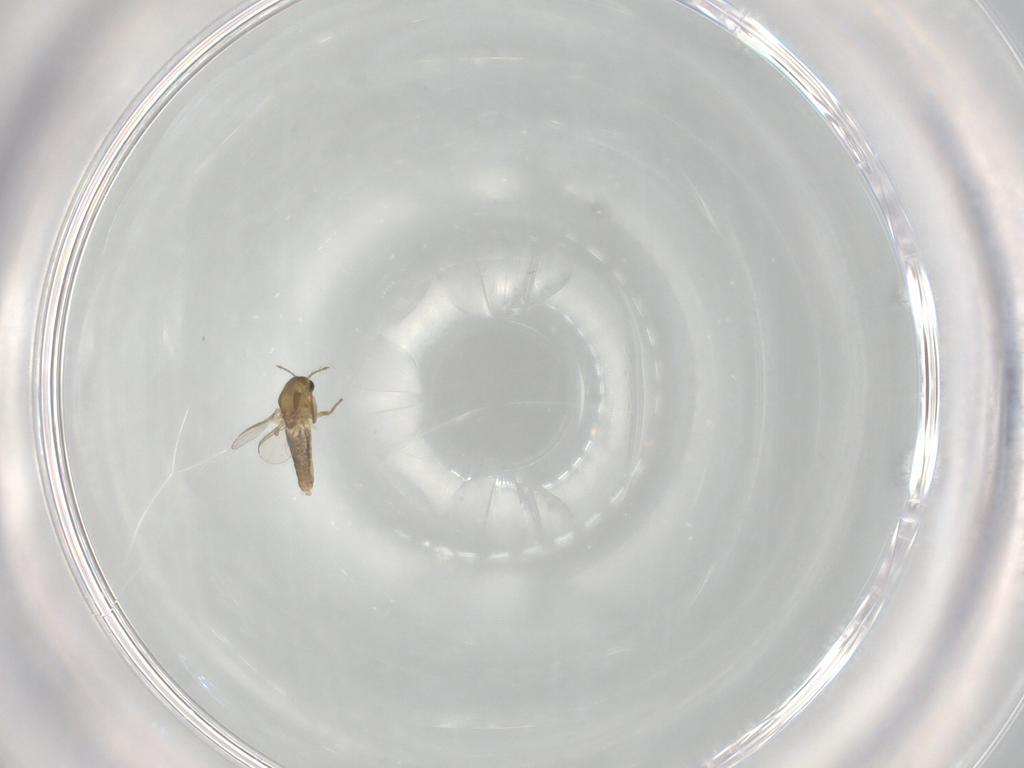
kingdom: Animalia
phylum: Arthropoda
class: Insecta
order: Diptera
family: Chironomidae
